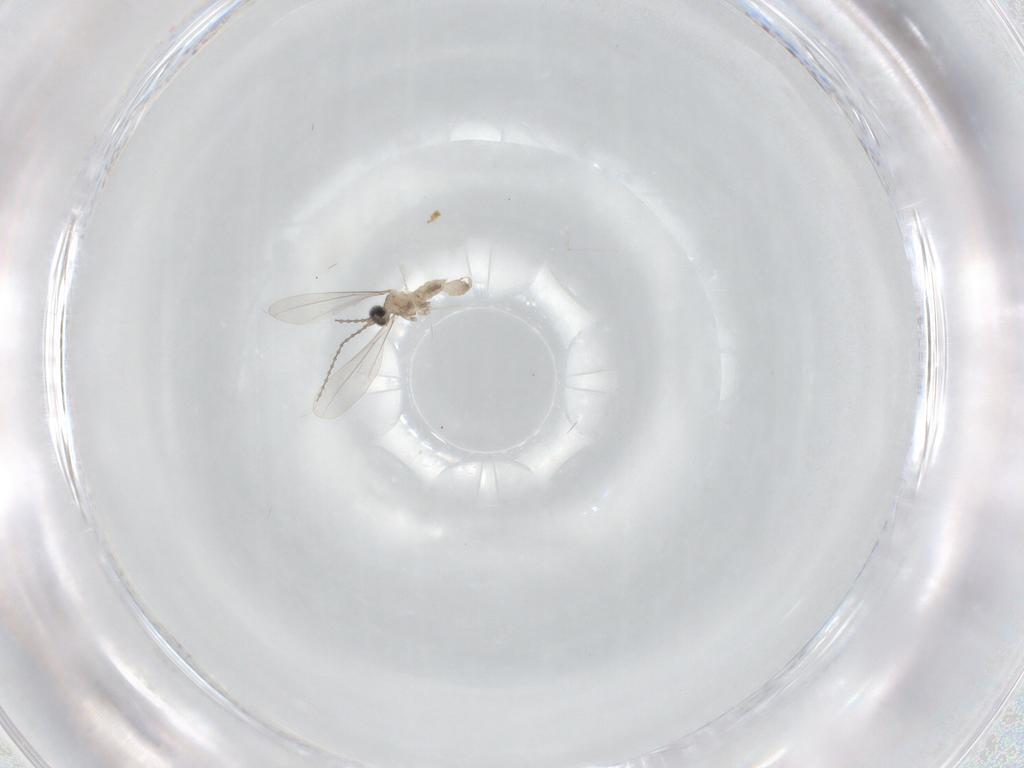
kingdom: Animalia
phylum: Arthropoda
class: Insecta
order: Diptera
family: Cecidomyiidae
